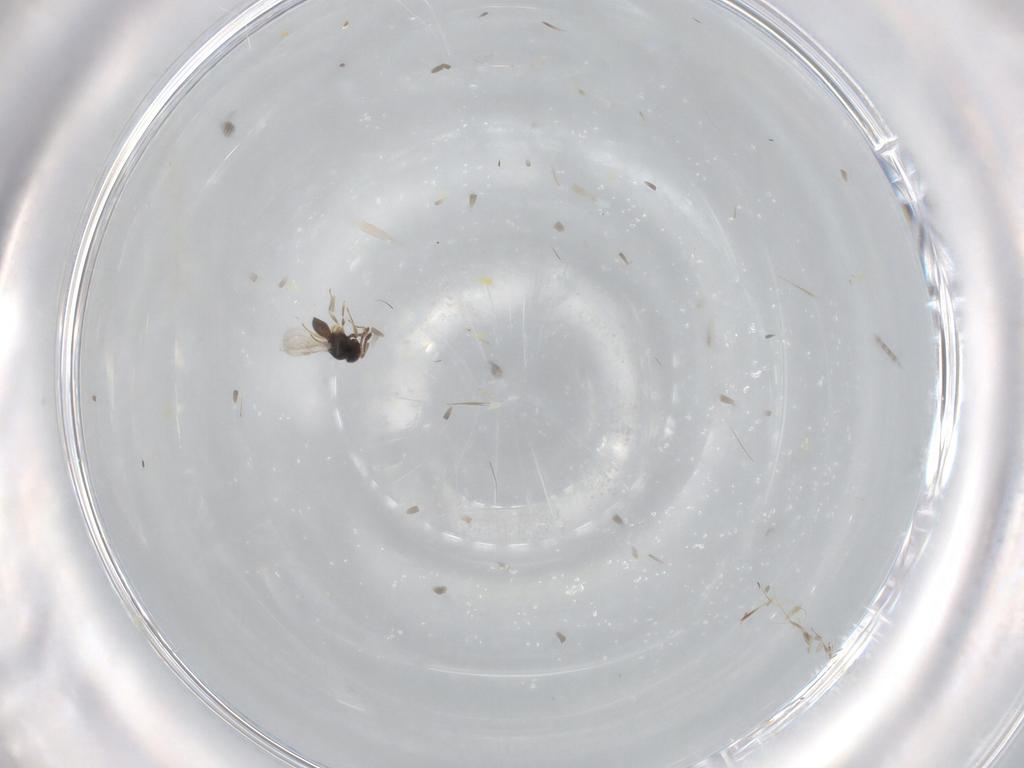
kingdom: Animalia
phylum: Arthropoda
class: Insecta
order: Hymenoptera
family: Scelionidae
